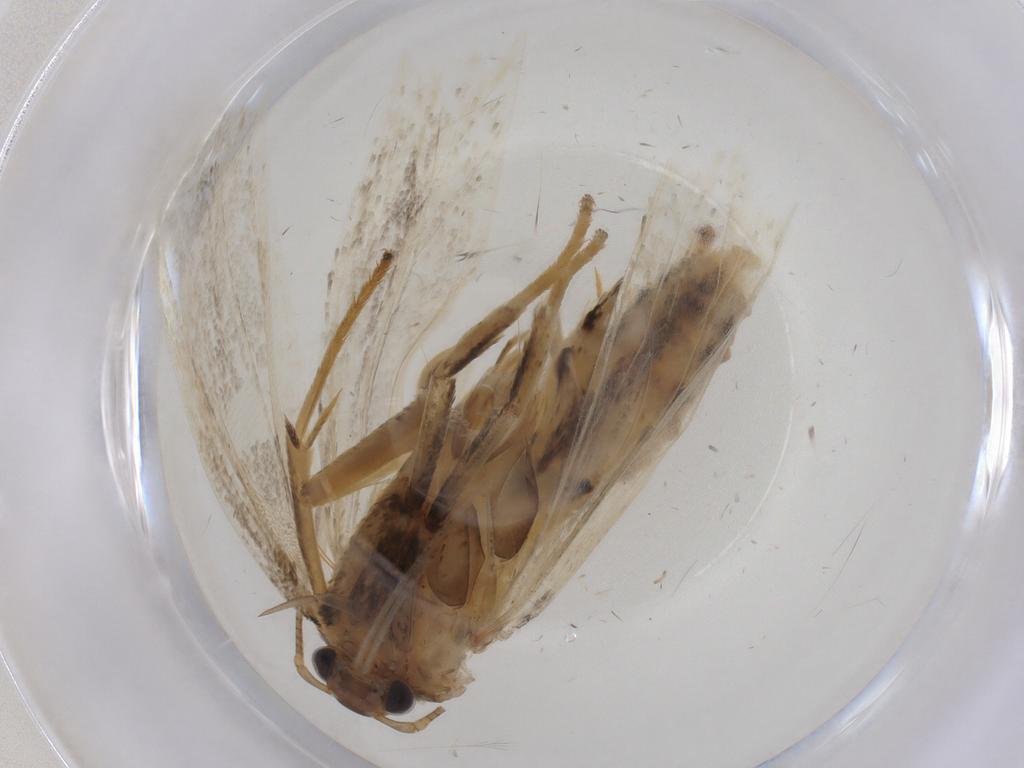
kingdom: Animalia
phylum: Arthropoda
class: Insecta
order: Lepidoptera
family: Depressariidae
